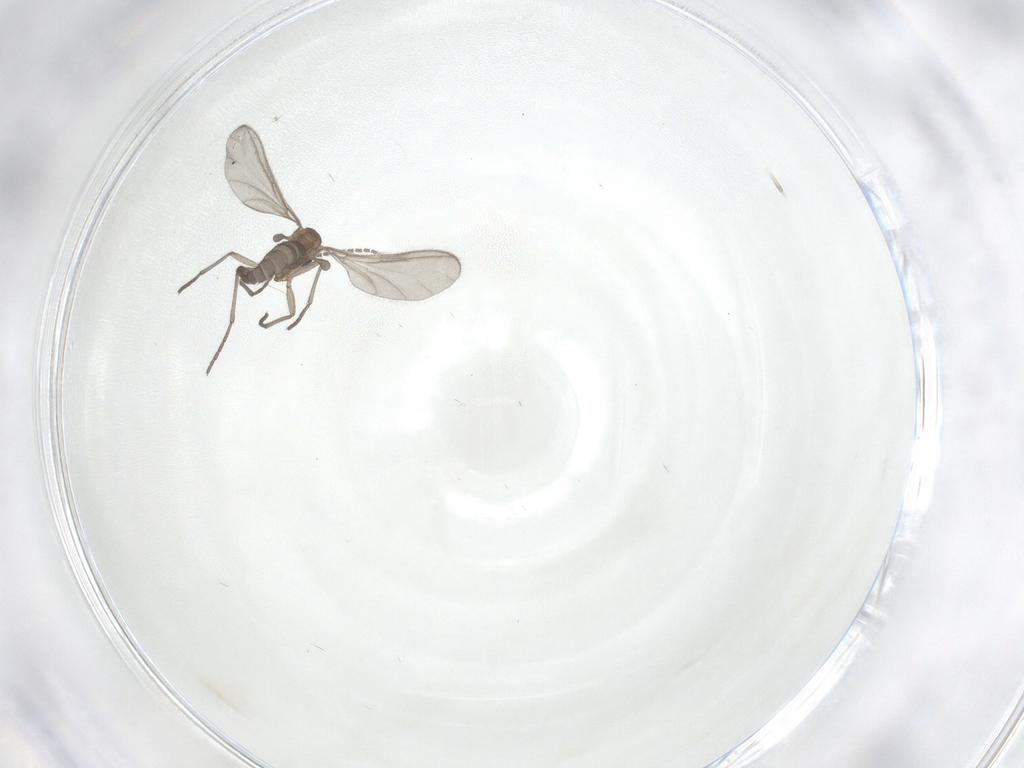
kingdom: Animalia
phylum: Arthropoda
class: Insecta
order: Diptera
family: Sciaridae
